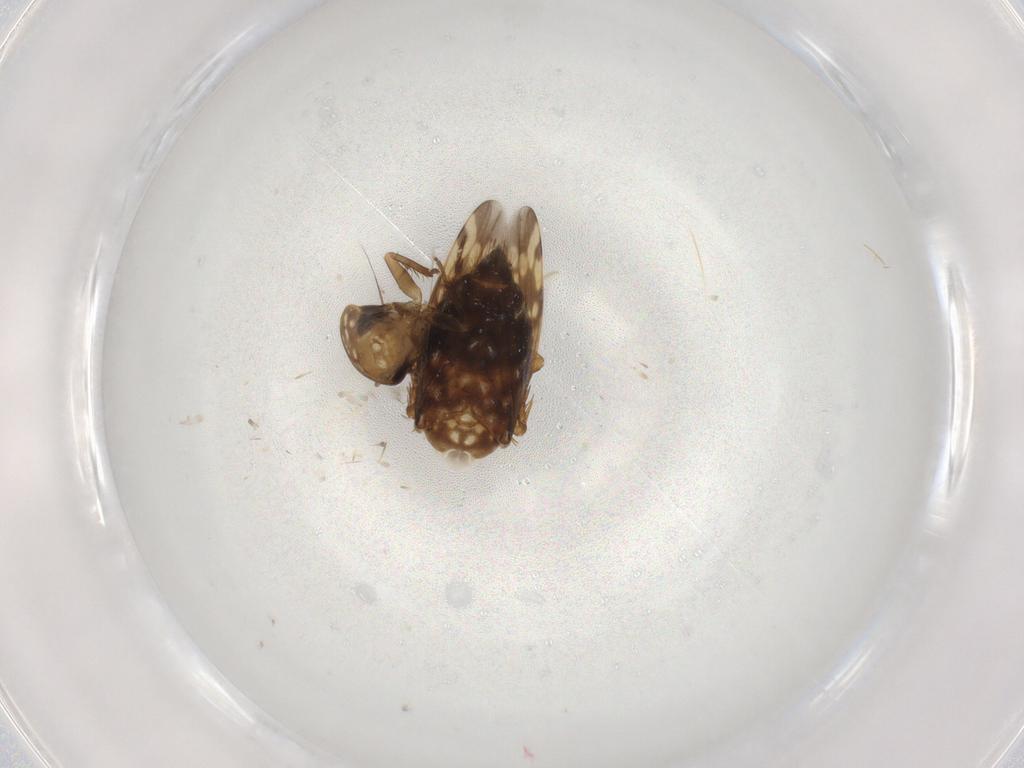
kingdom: Animalia
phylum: Arthropoda
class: Insecta
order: Hemiptera
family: Cicadellidae
